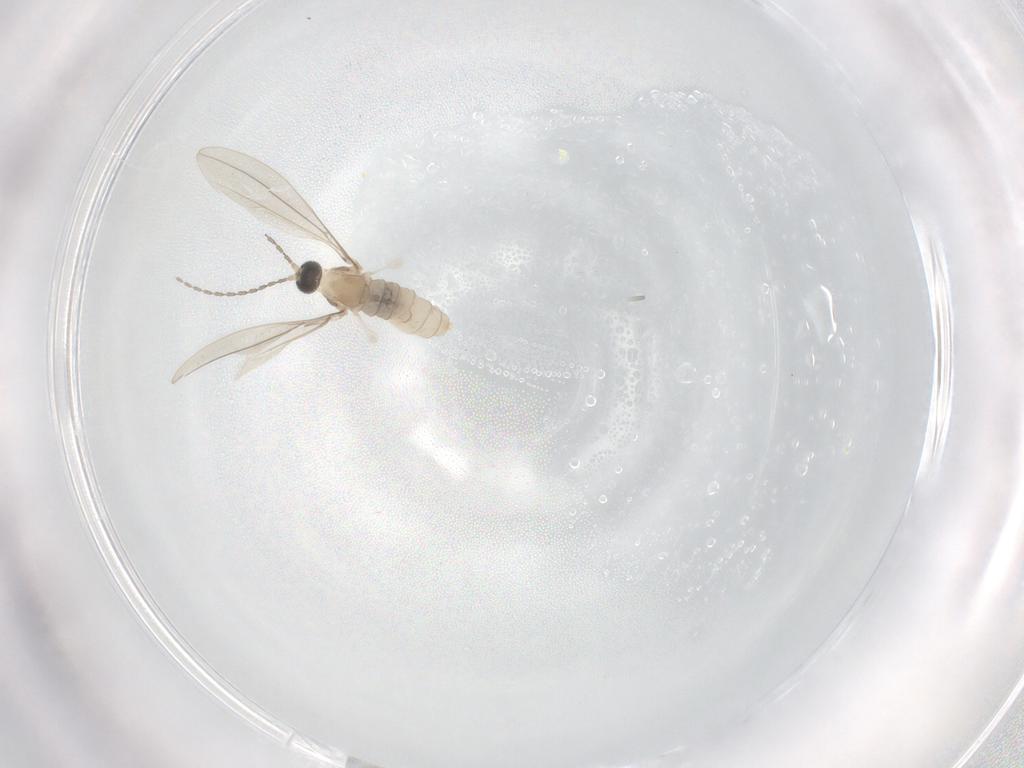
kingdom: Animalia
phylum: Arthropoda
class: Insecta
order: Diptera
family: Cecidomyiidae
